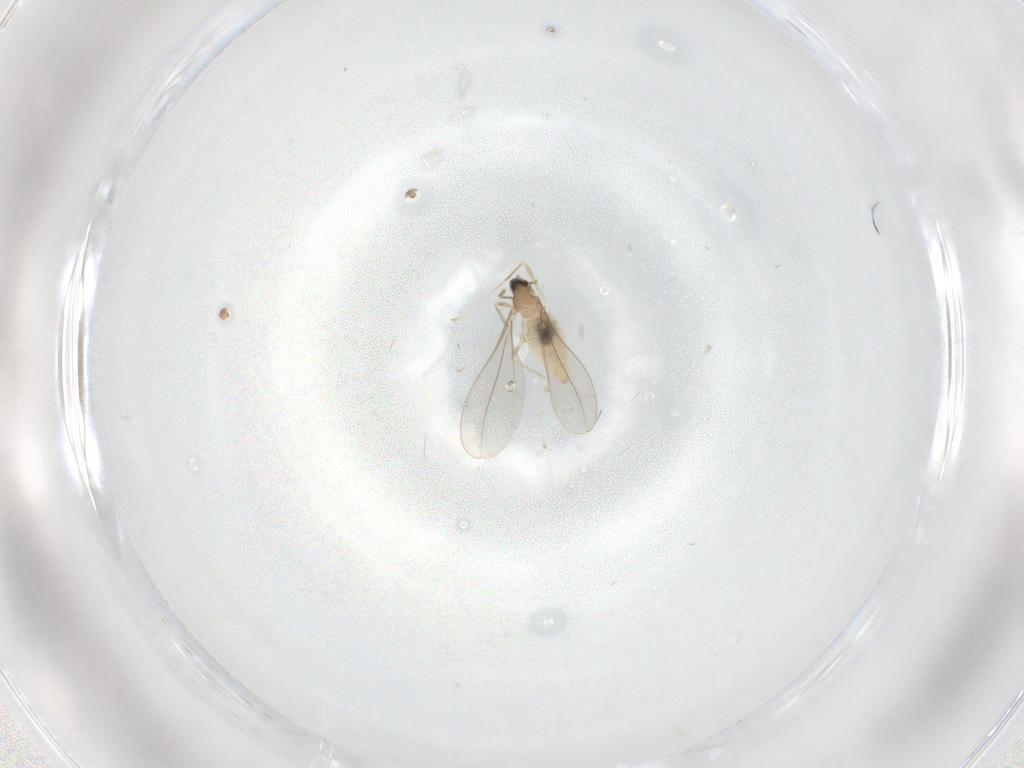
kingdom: Animalia
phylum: Arthropoda
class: Insecta
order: Diptera
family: Cecidomyiidae
